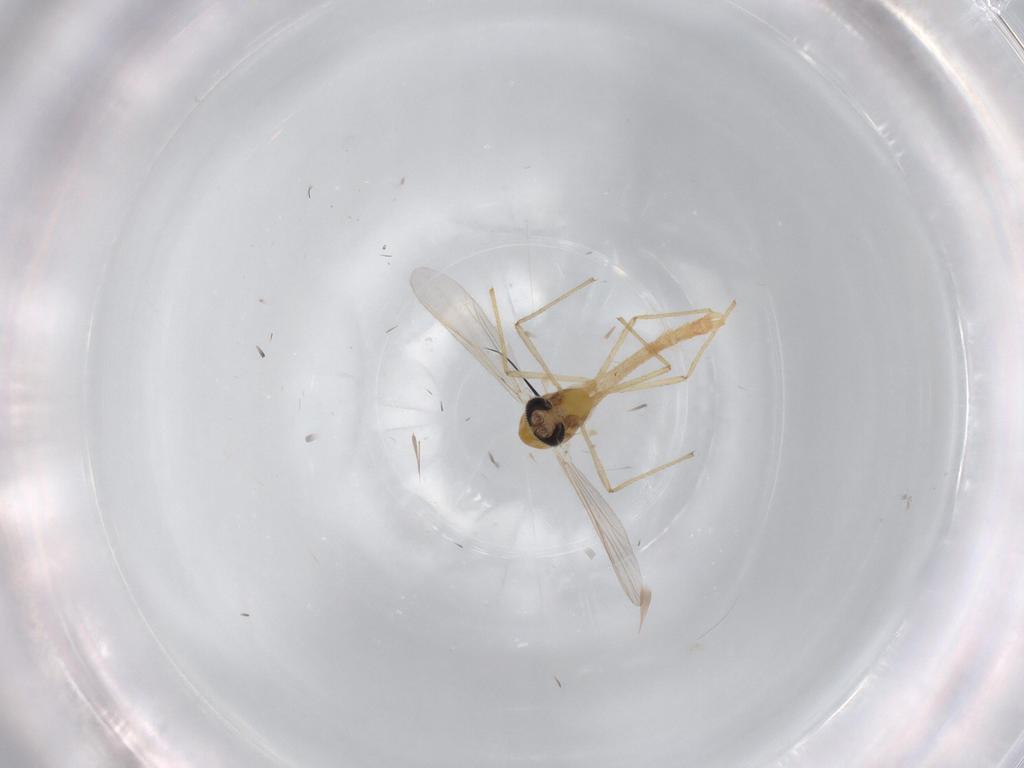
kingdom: Animalia
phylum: Arthropoda
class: Insecta
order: Diptera
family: Chironomidae
